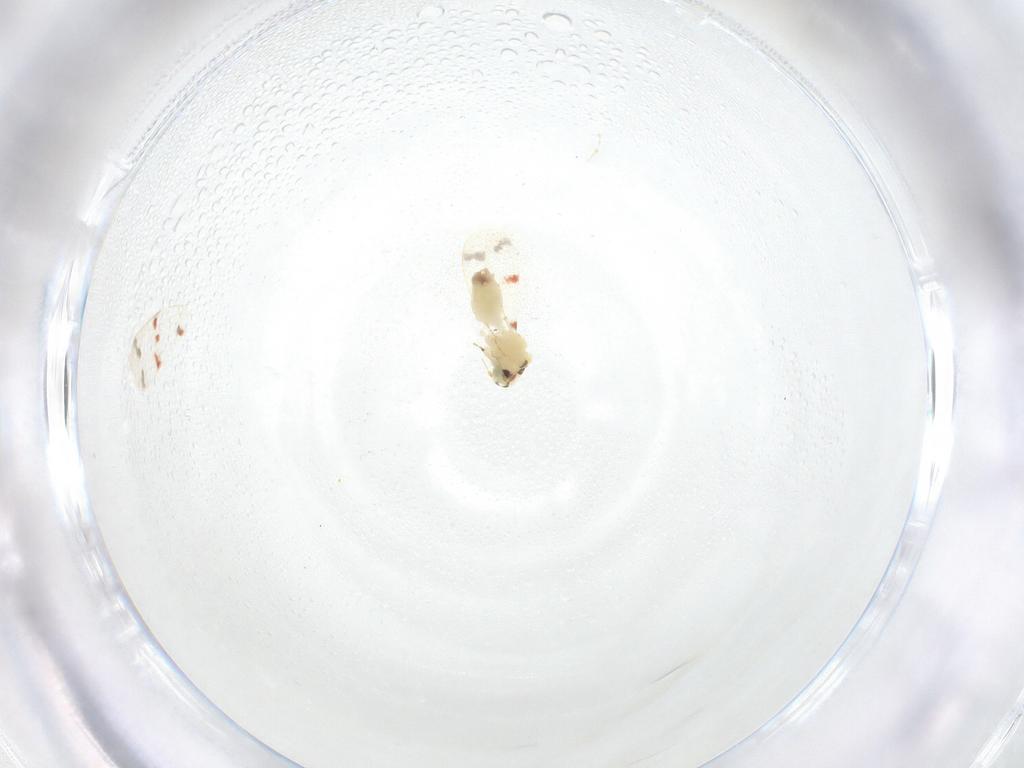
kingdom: Animalia
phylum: Arthropoda
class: Insecta
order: Hemiptera
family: Aleyrodidae
